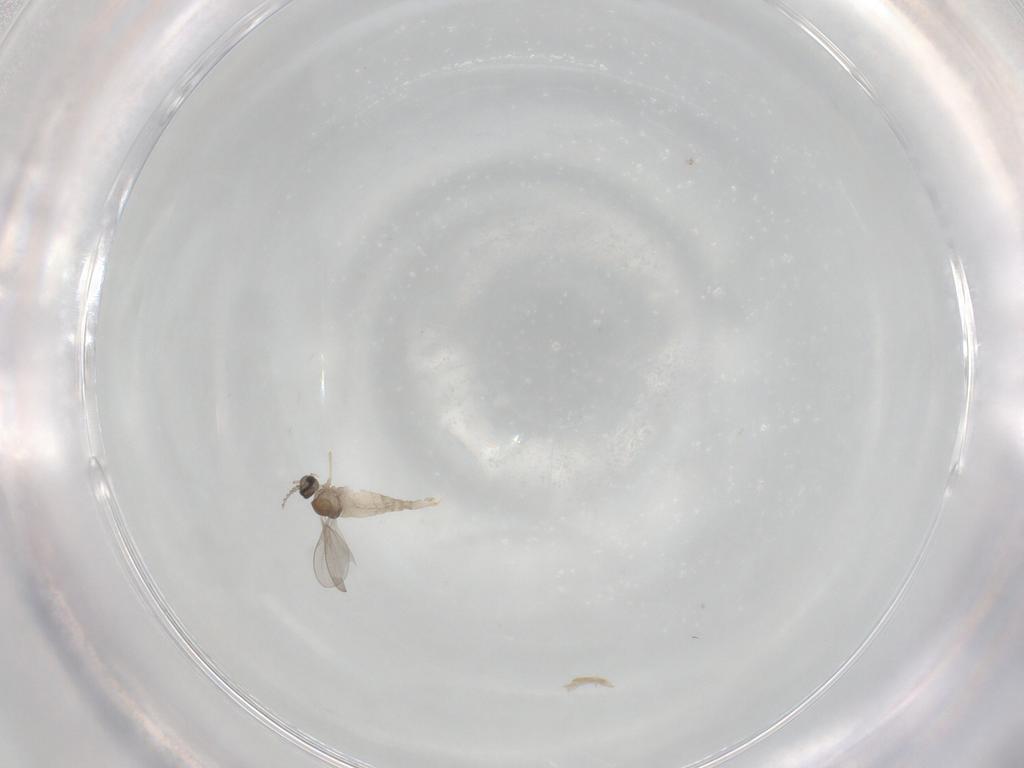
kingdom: Animalia
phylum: Arthropoda
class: Insecta
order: Diptera
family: Cecidomyiidae
